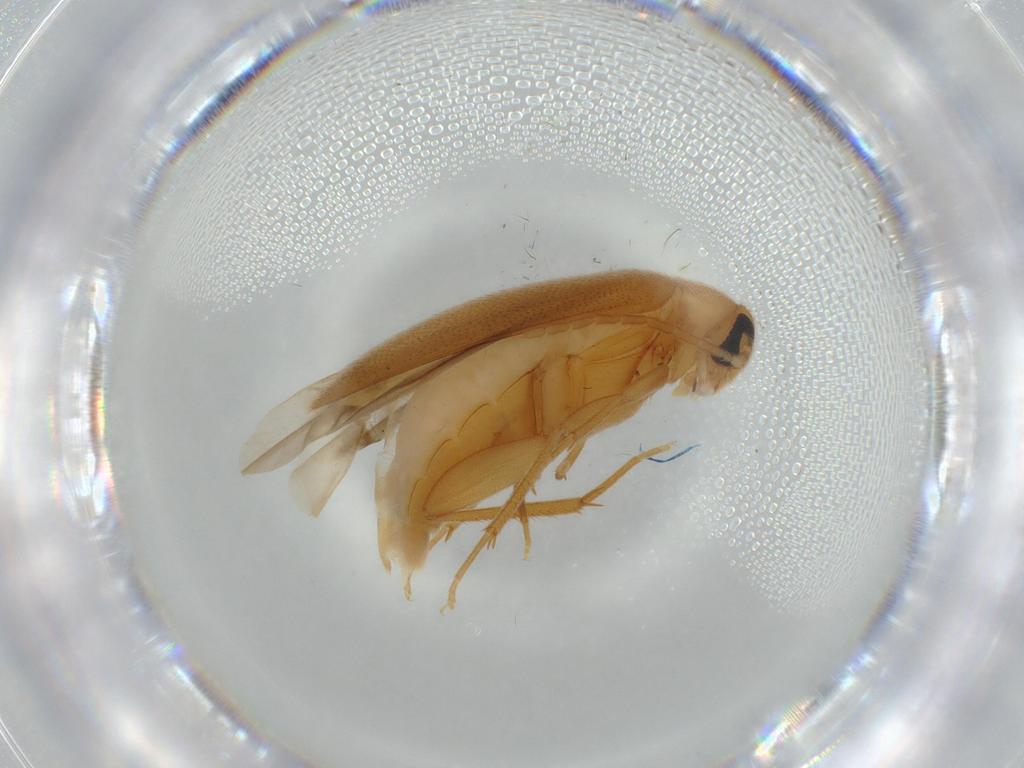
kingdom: Animalia
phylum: Arthropoda
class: Insecta
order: Coleoptera
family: Scraptiidae
